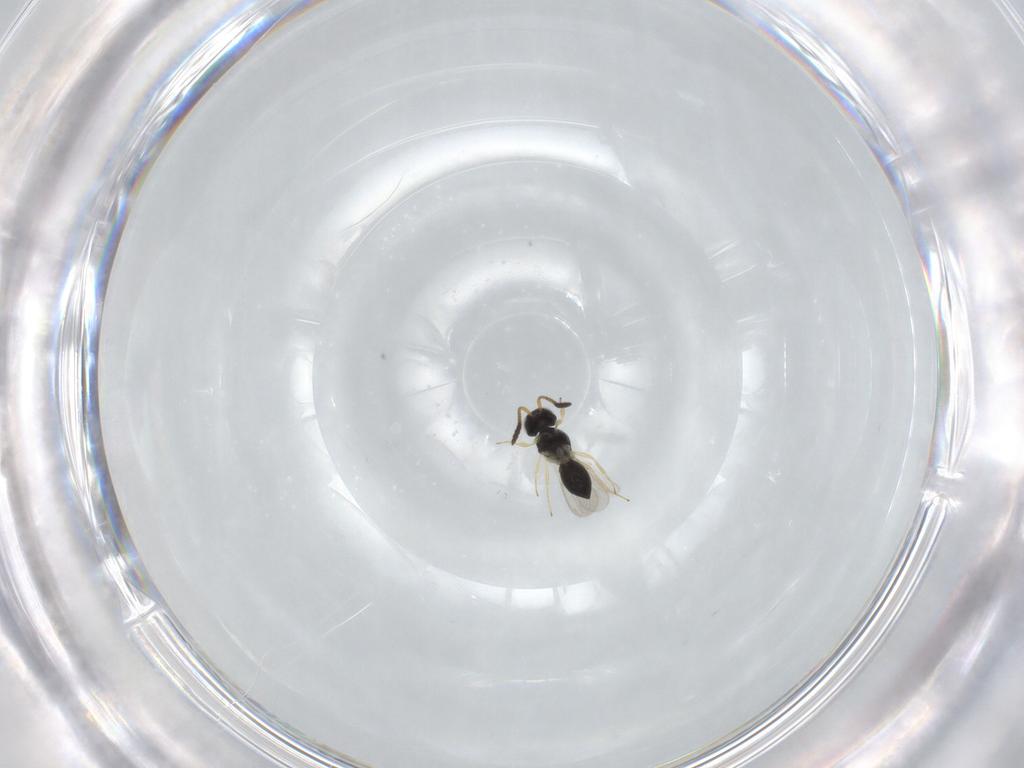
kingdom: Animalia
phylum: Arthropoda
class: Insecta
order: Hymenoptera
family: Scelionidae
